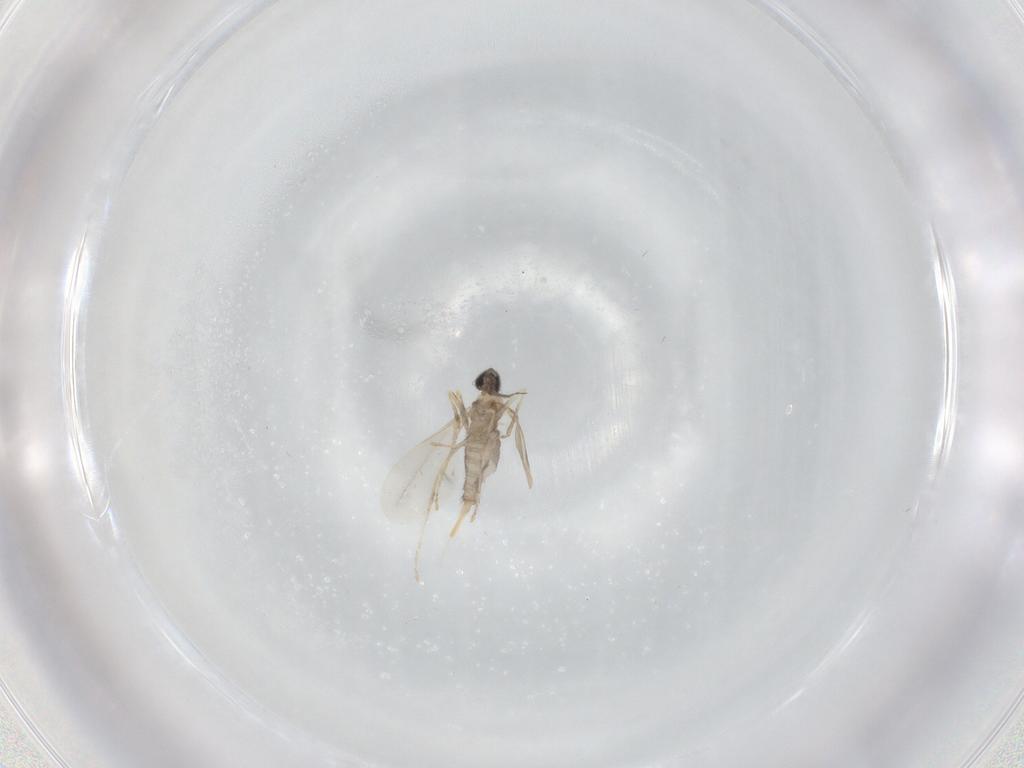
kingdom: Animalia
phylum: Arthropoda
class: Insecta
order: Diptera
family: Cecidomyiidae
